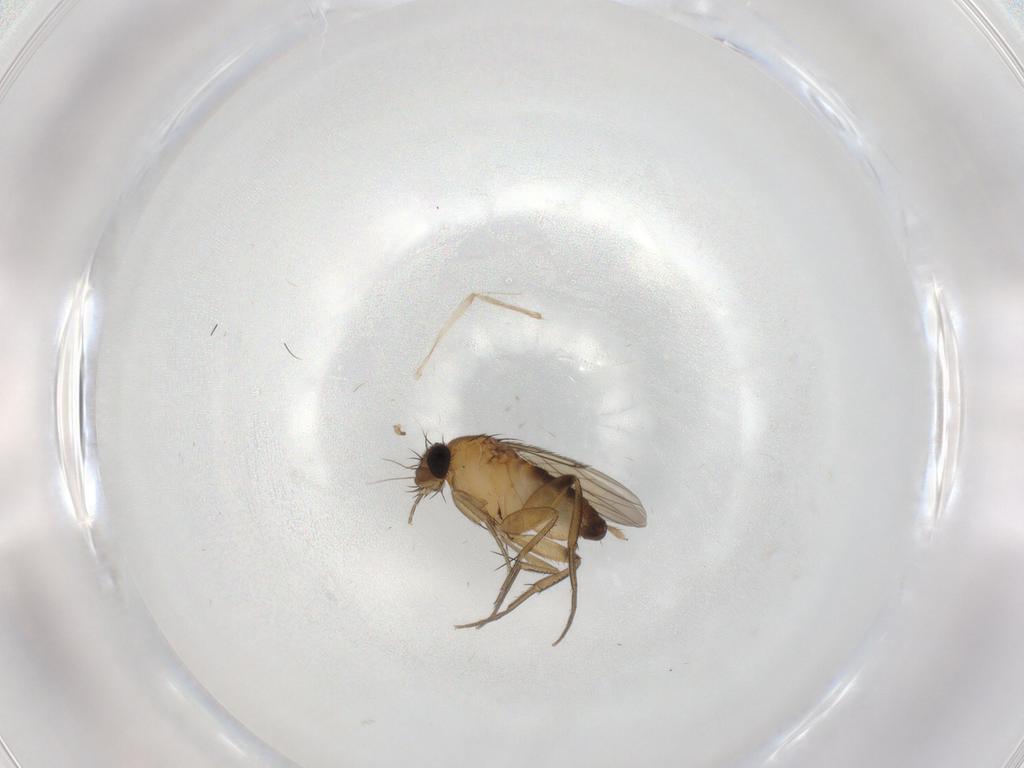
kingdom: Animalia
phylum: Arthropoda
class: Insecta
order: Diptera
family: Phoridae
